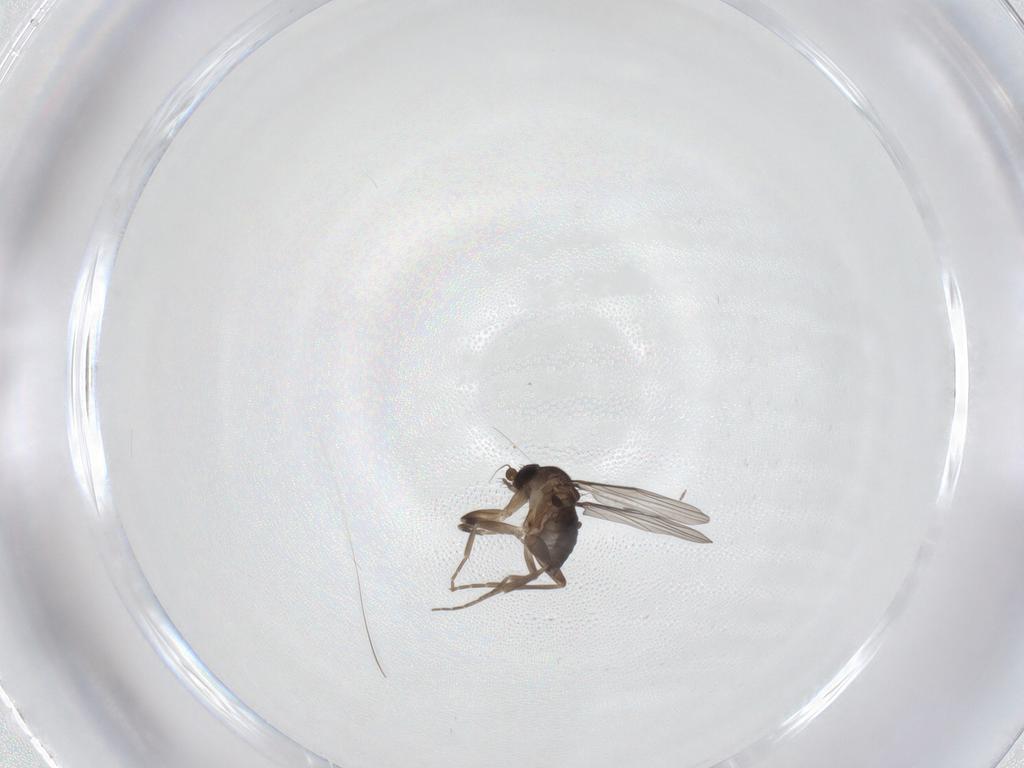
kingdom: Animalia
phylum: Arthropoda
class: Insecta
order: Diptera
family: Phoridae
